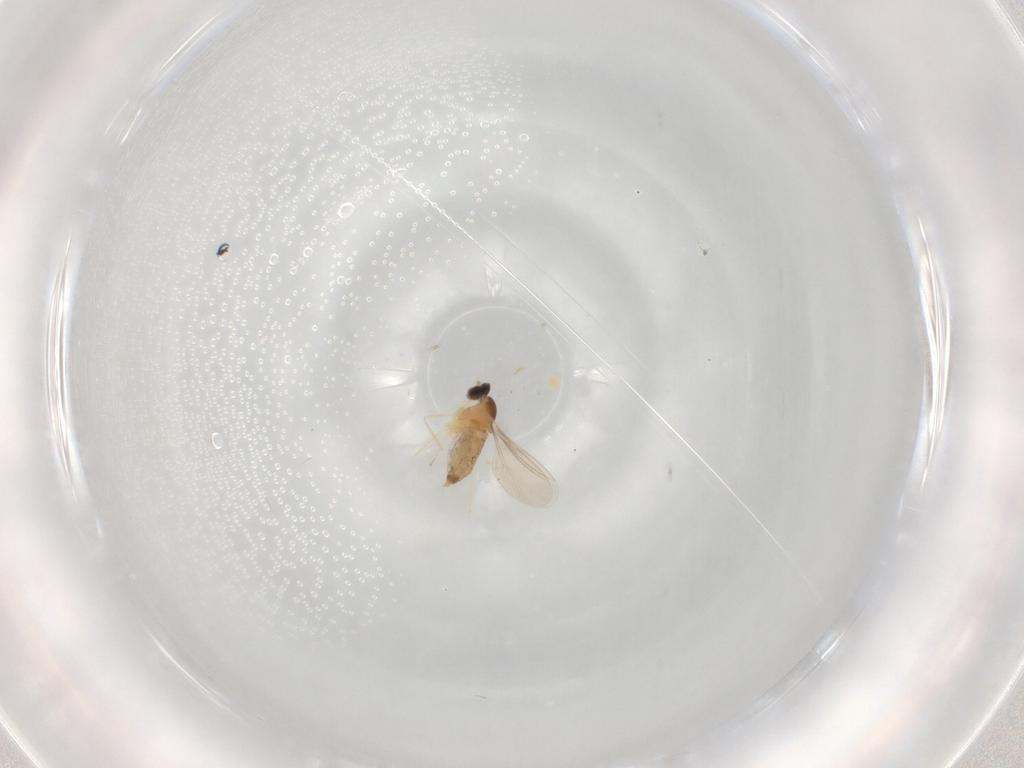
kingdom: Animalia
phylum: Arthropoda
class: Insecta
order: Diptera
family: Cecidomyiidae
